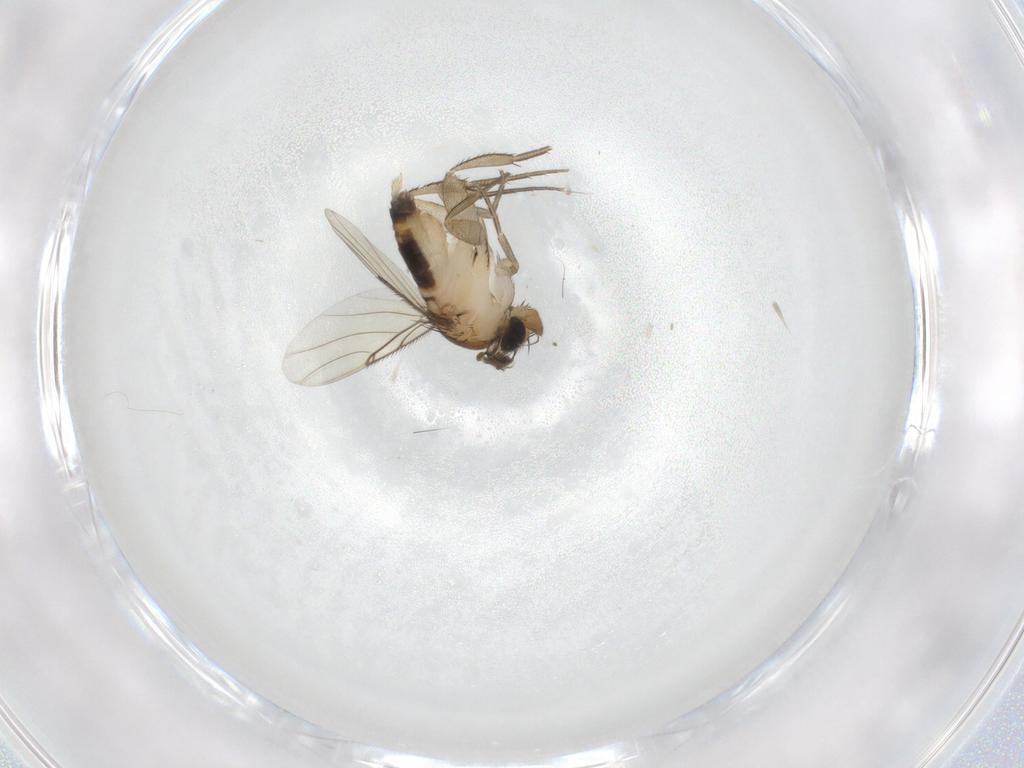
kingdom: Animalia
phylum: Arthropoda
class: Insecta
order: Diptera
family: Phoridae
